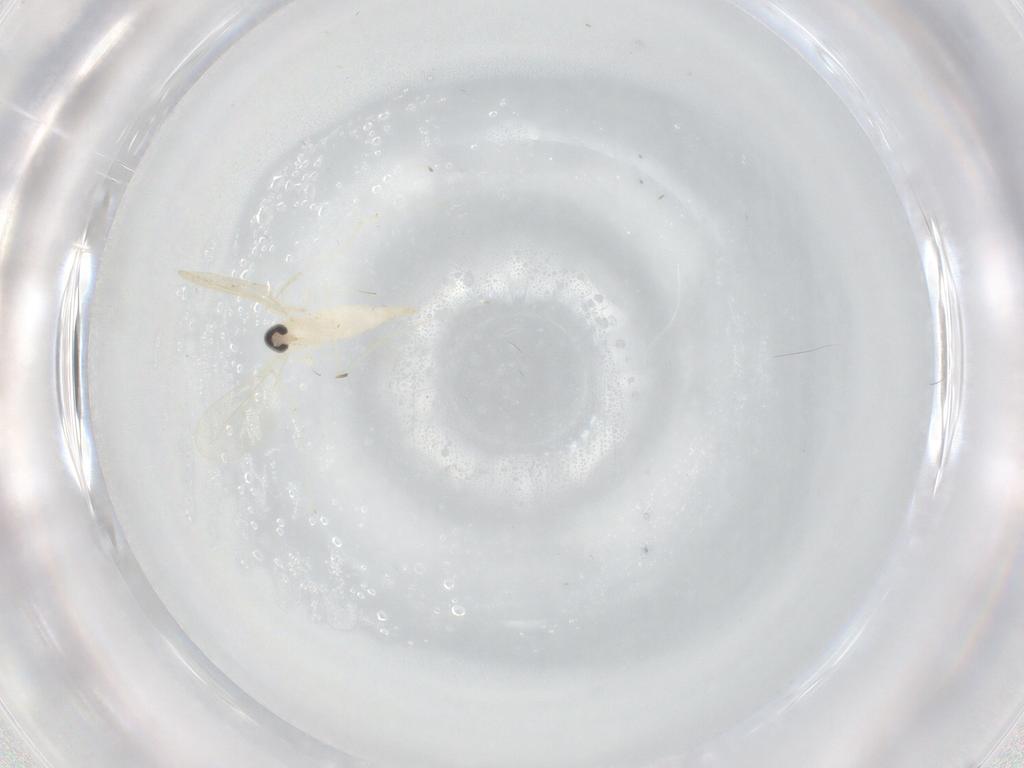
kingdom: Animalia
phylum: Arthropoda
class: Insecta
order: Diptera
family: Cecidomyiidae
